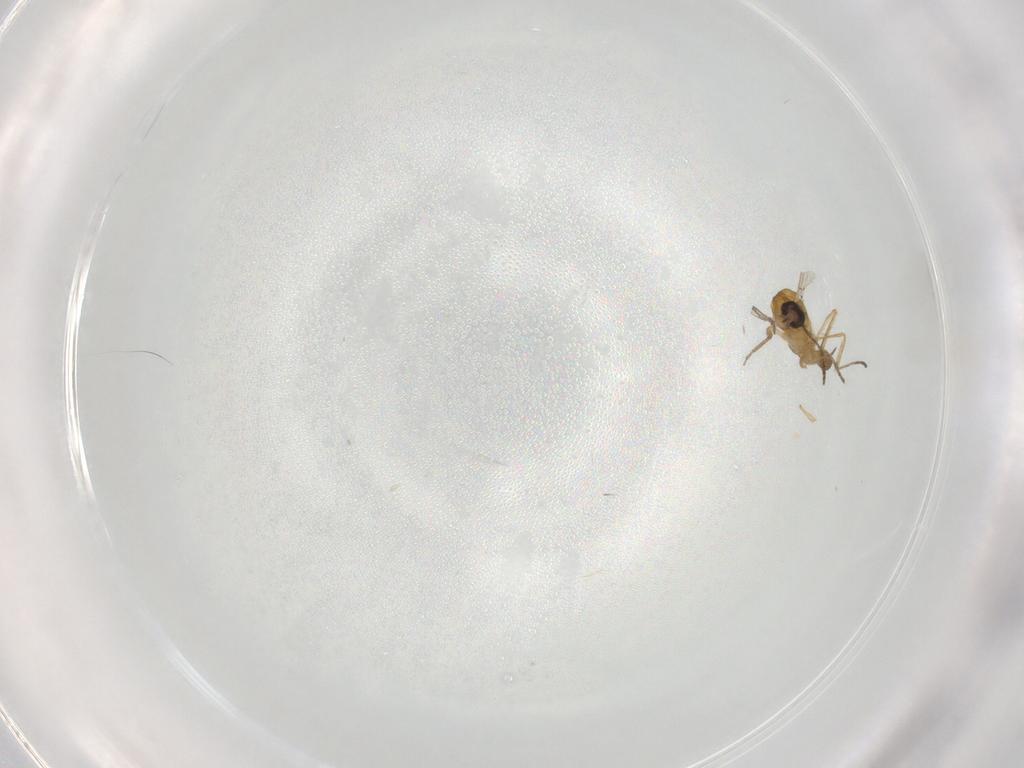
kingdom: Animalia
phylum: Arthropoda
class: Insecta
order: Diptera
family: Ceratopogonidae
